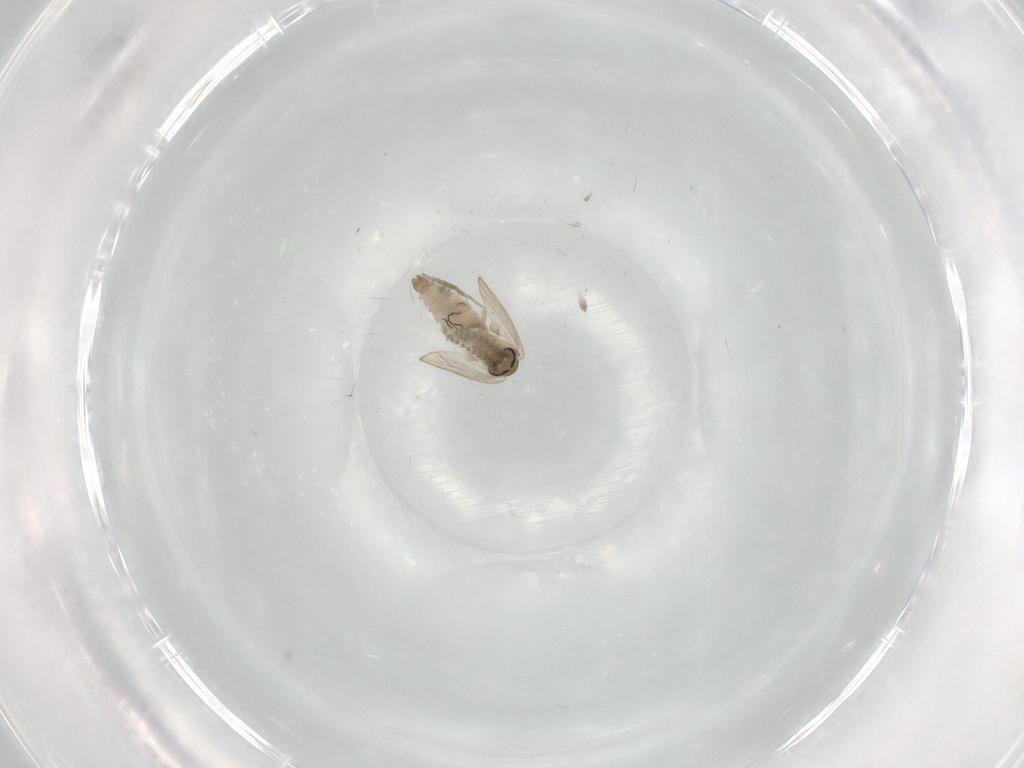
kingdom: Animalia
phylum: Arthropoda
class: Insecta
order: Diptera
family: Psychodidae
